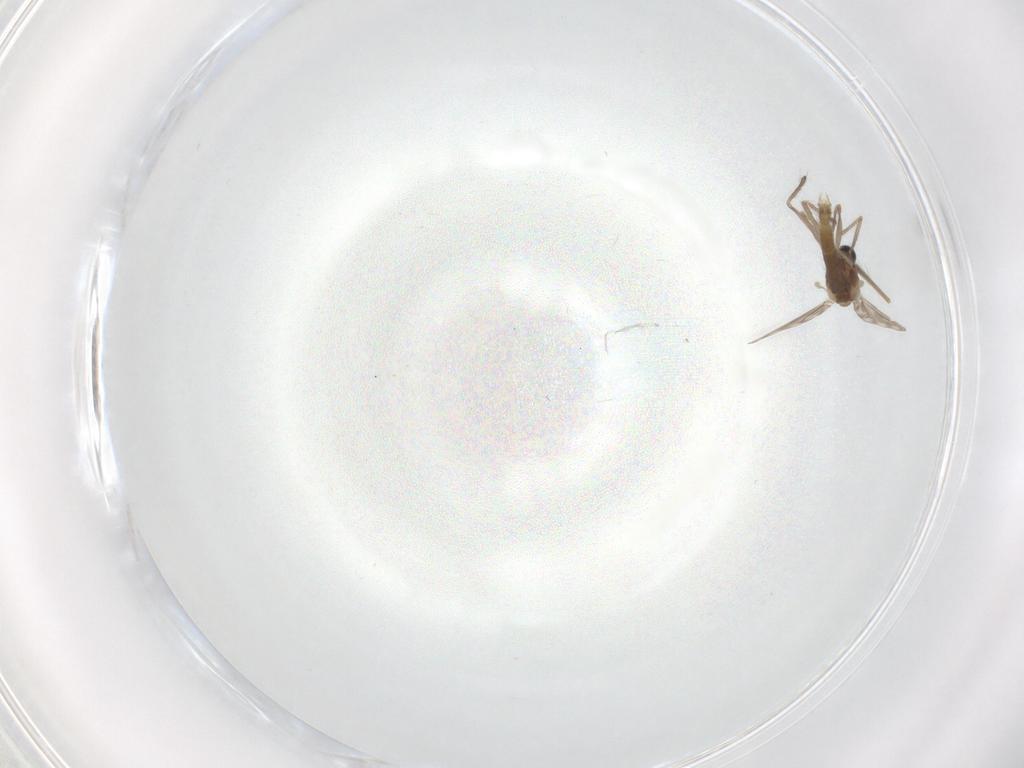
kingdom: Animalia
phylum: Arthropoda
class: Insecta
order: Diptera
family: Chironomidae
